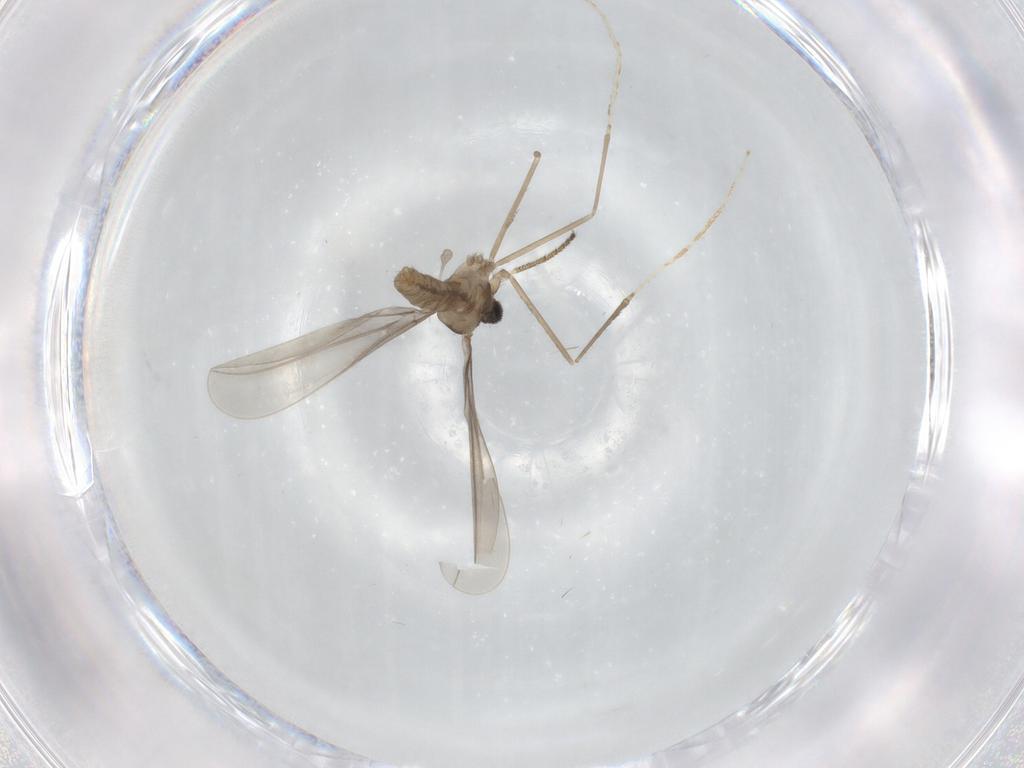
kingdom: Animalia
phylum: Arthropoda
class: Insecta
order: Diptera
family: Cecidomyiidae
